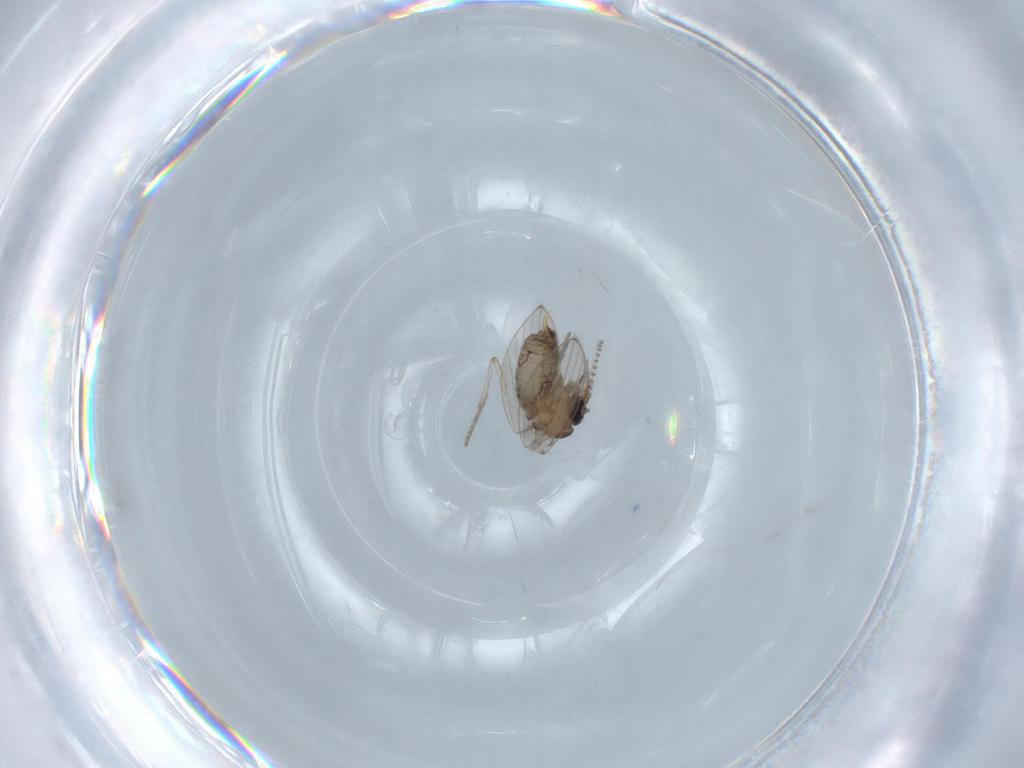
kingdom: Animalia
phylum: Arthropoda
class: Insecta
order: Diptera
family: Psychodidae
